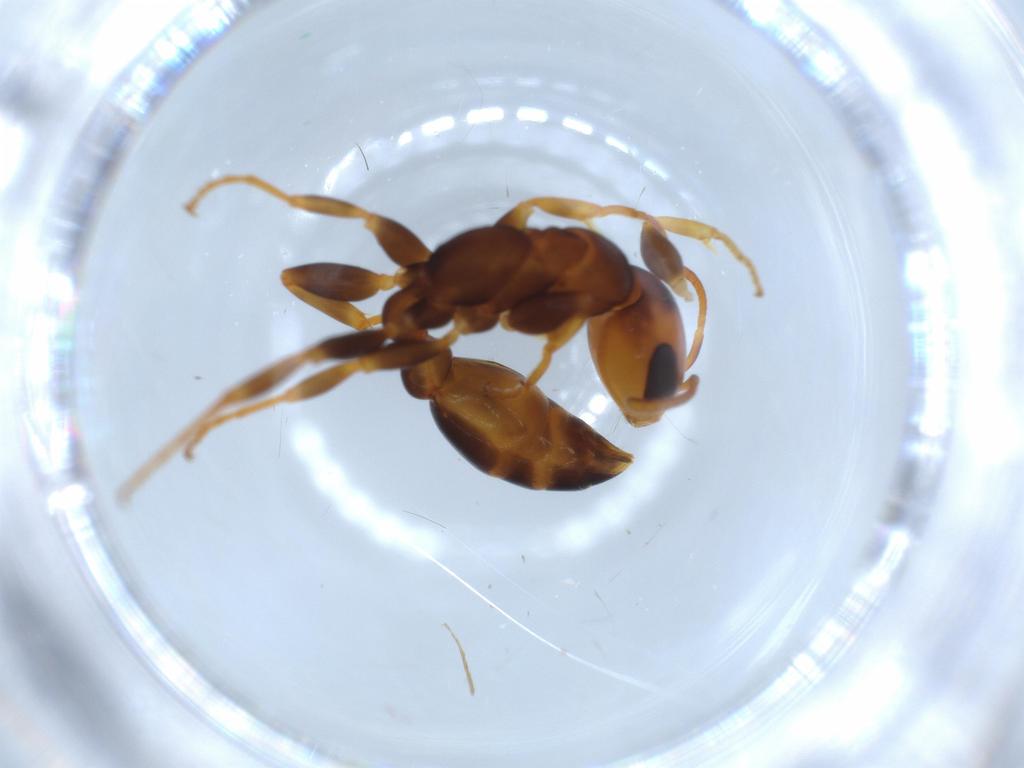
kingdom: Animalia
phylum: Arthropoda
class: Insecta
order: Hymenoptera
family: Formicidae
